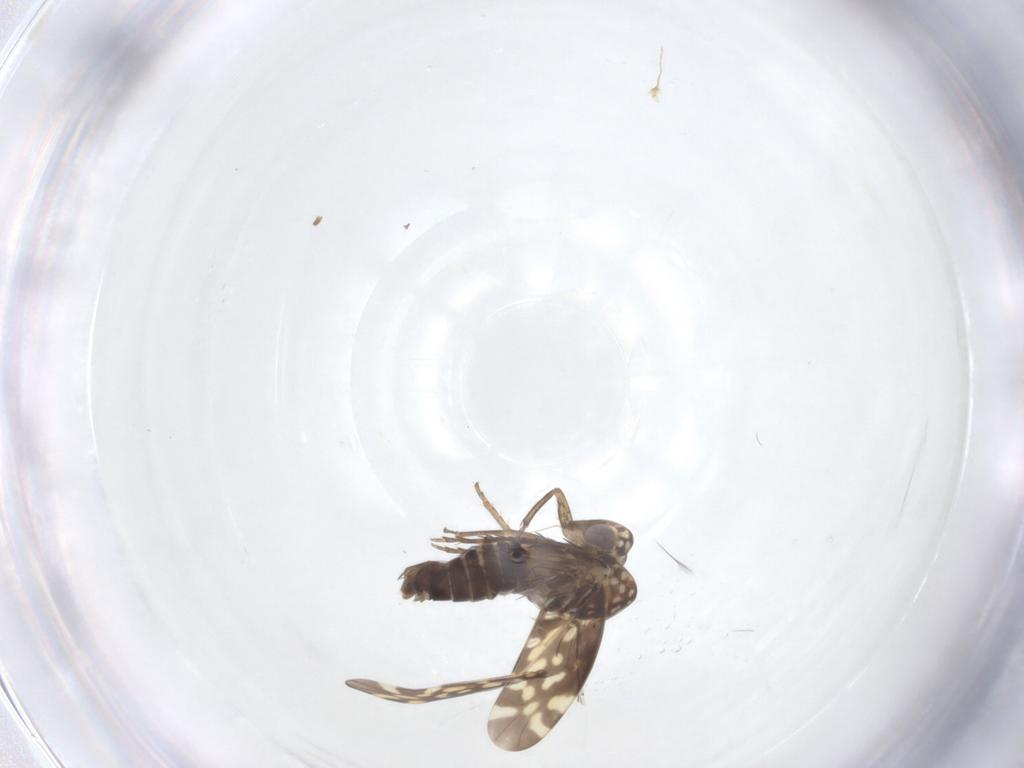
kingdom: Animalia
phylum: Arthropoda
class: Insecta
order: Hemiptera
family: Cicadellidae
